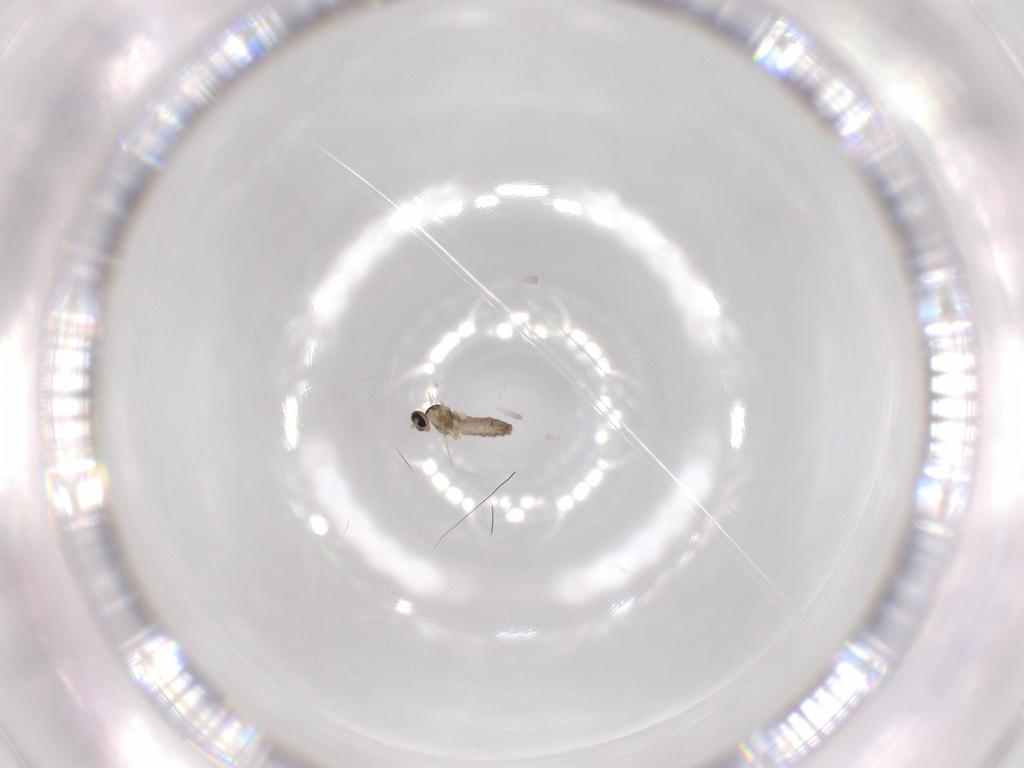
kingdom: Animalia
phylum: Arthropoda
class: Insecta
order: Diptera
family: Cecidomyiidae
